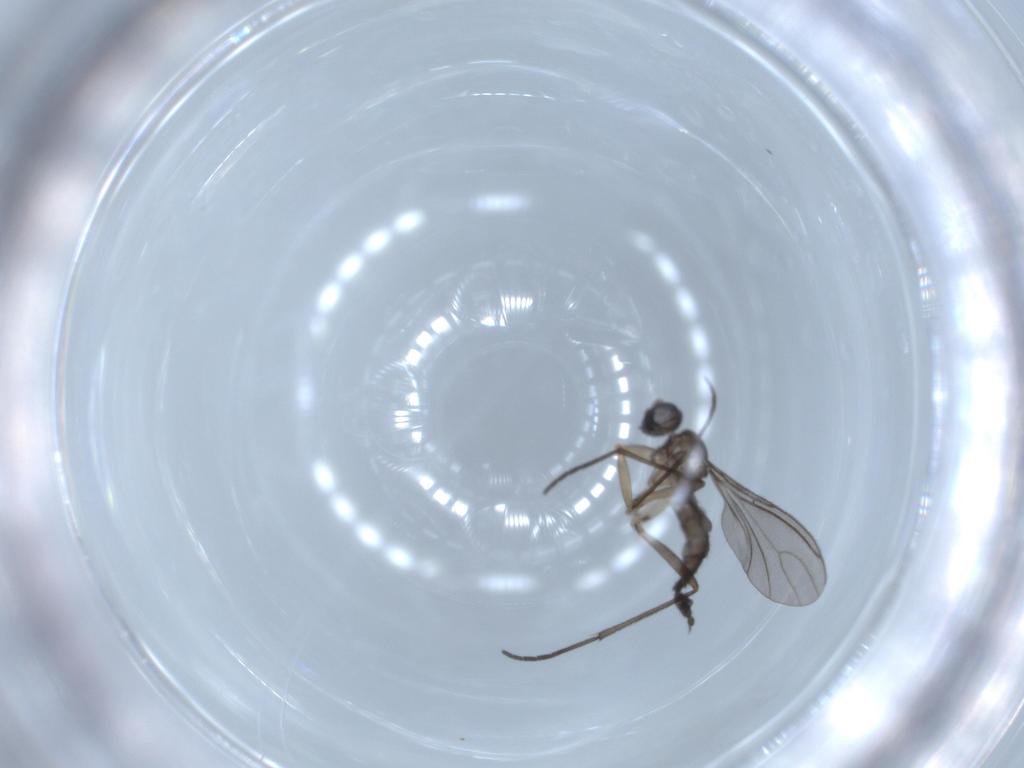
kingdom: Animalia
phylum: Arthropoda
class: Insecta
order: Diptera
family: Sciaridae
